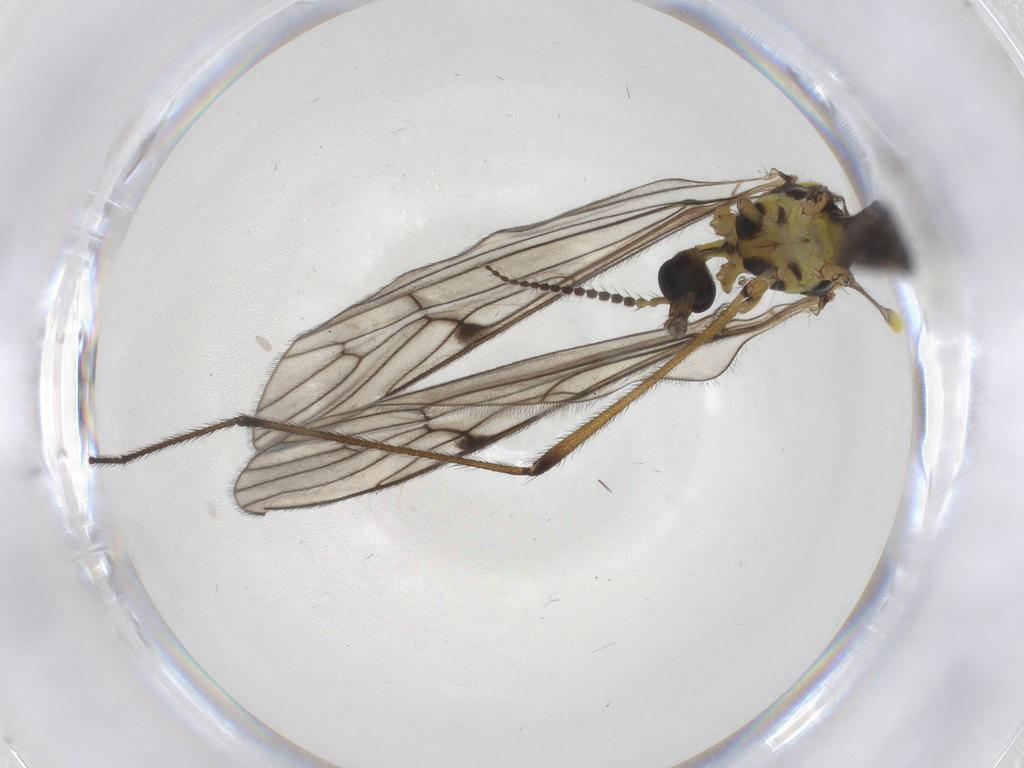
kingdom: Animalia
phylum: Arthropoda
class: Insecta
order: Diptera
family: Limoniidae
